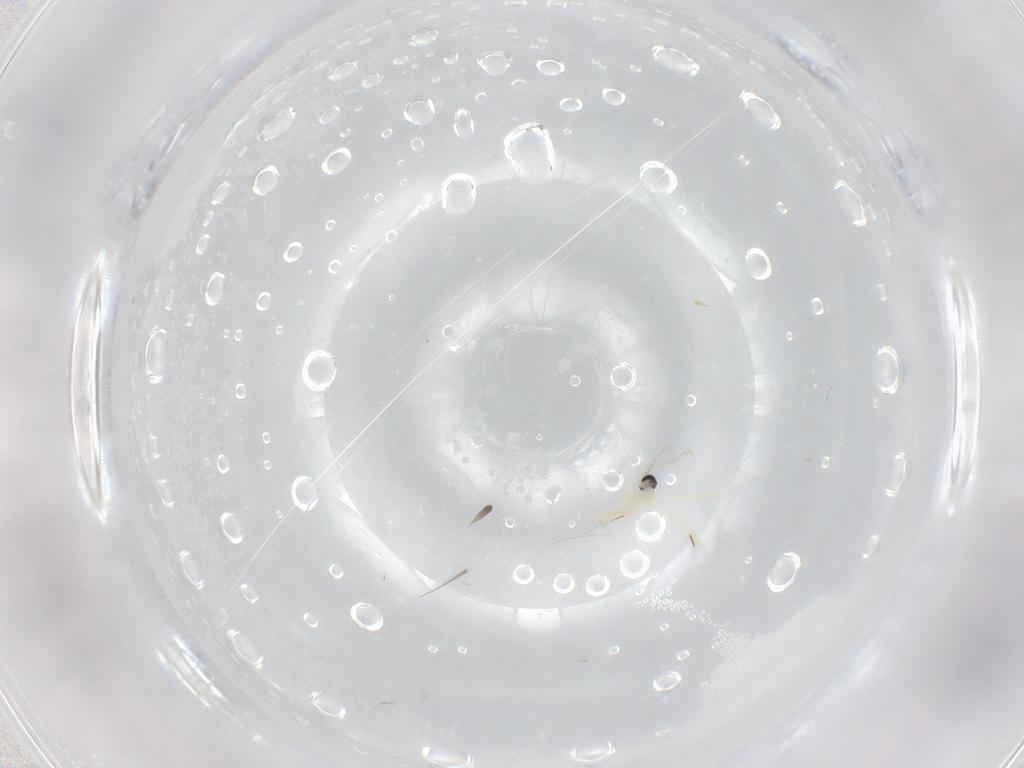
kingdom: Animalia
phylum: Arthropoda
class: Insecta
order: Diptera
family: Cecidomyiidae
